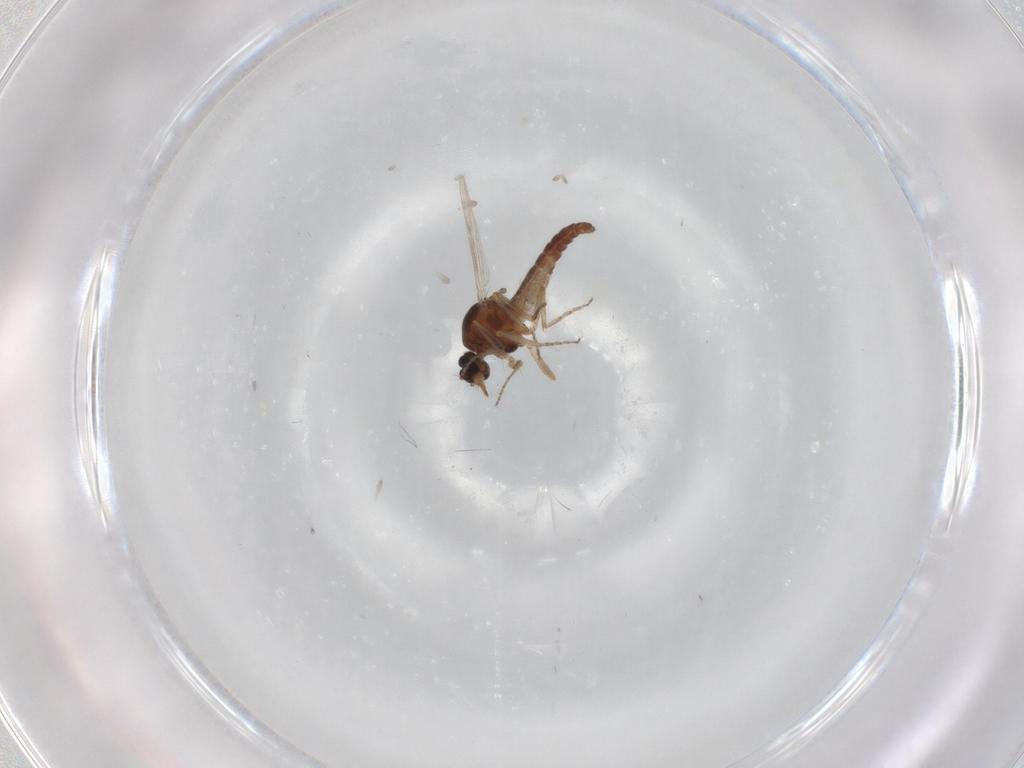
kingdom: Animalia
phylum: Arthropoda
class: Insecta
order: Diptera
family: Ceratopogonidae
